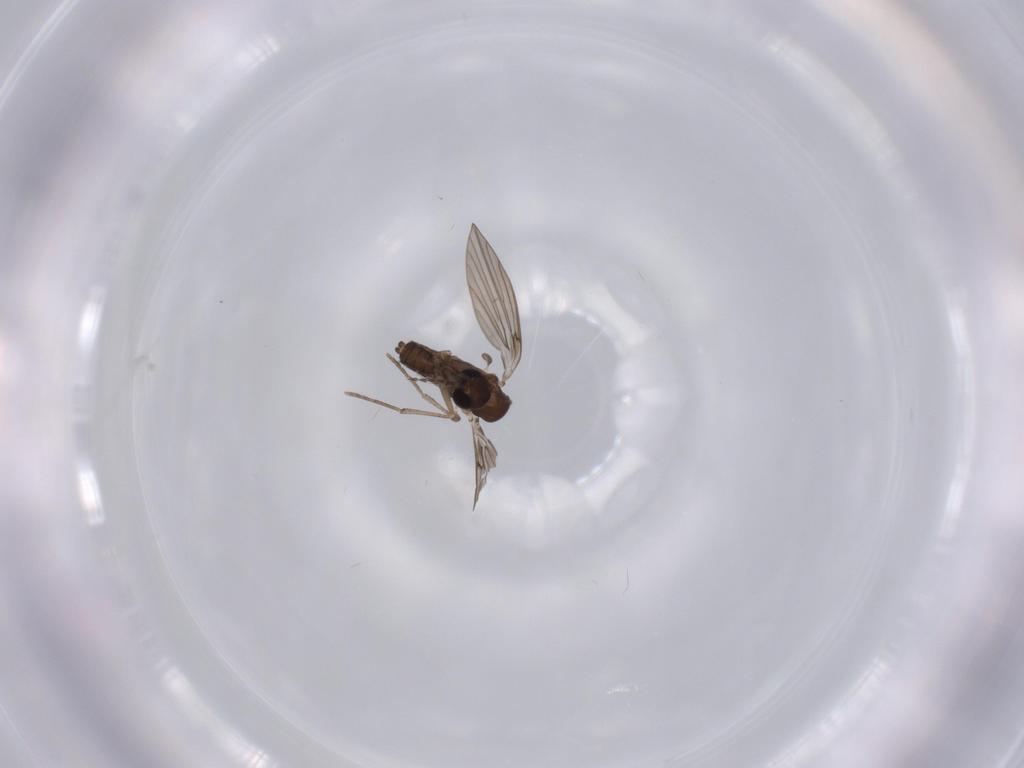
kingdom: Animalia
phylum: Arthropoda
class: Insecta
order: Diptera
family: Sciaridae
